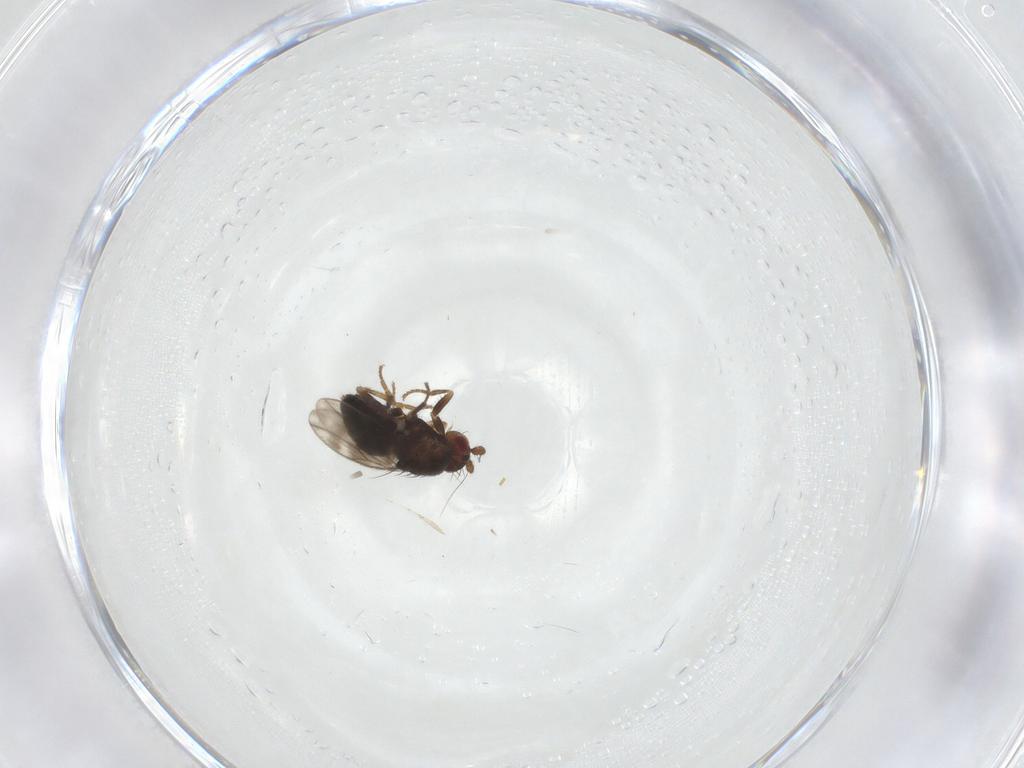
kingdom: Animalia
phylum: Arthropoda
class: Insecta
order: Diptera
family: Sphaeroceridae
